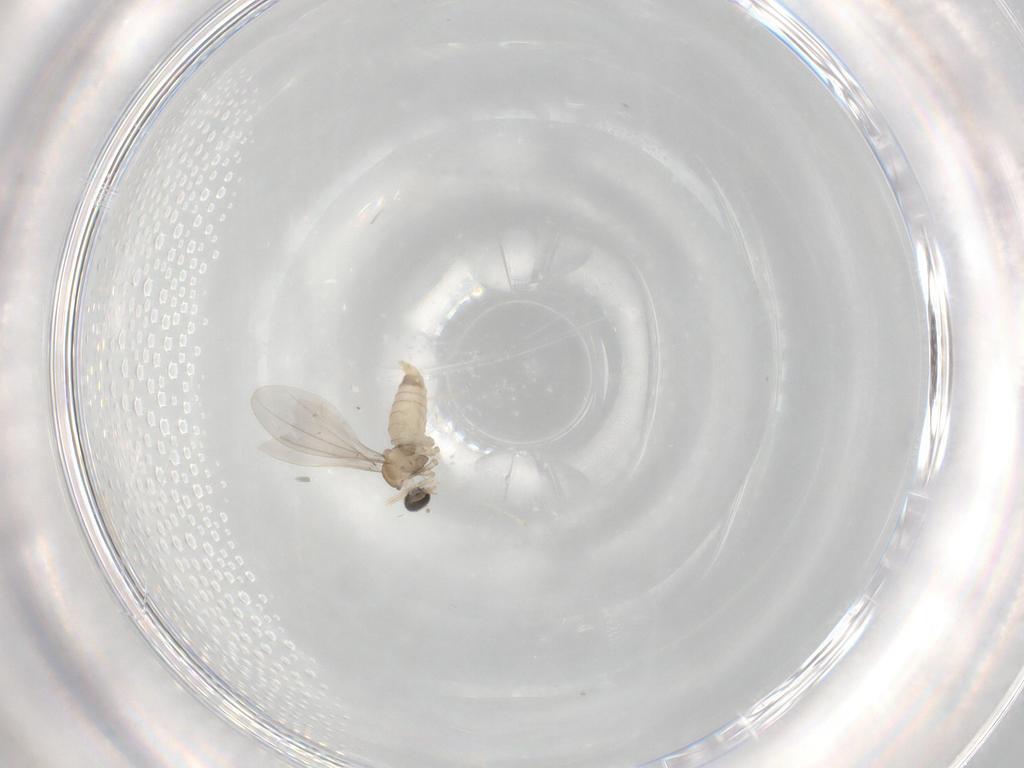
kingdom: Animalia
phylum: Arthropoda
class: Insecta
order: Diptera
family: Cecidomyiidae
